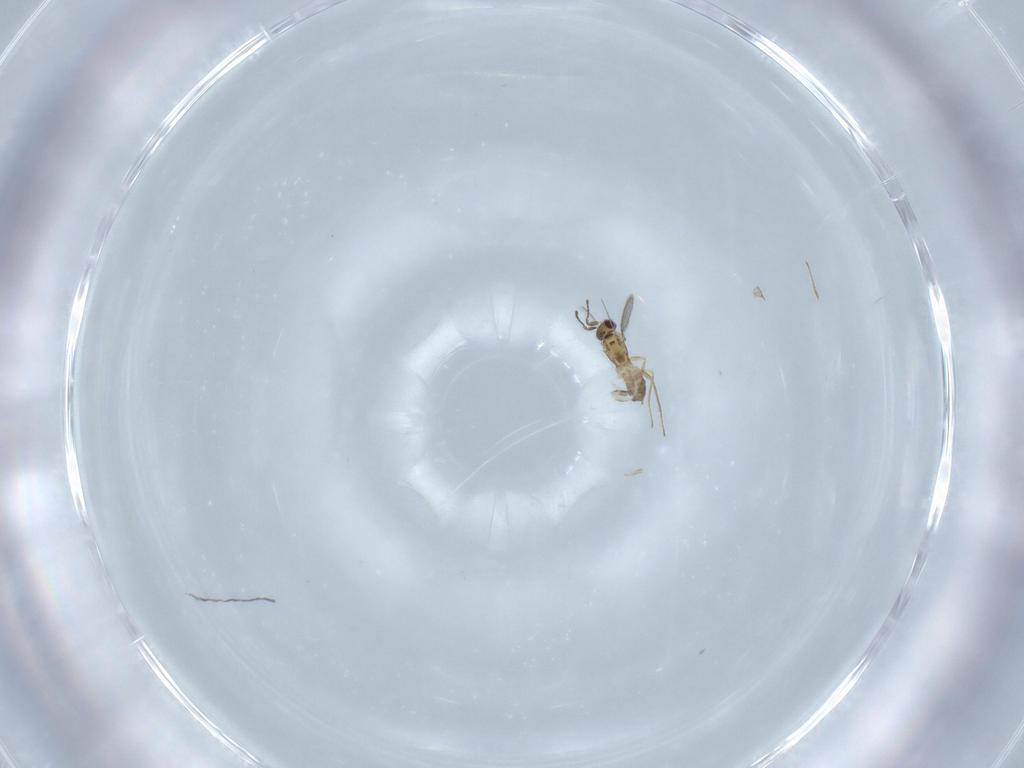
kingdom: Animalia
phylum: Arthropoda
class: Insecta
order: Hymenoptera
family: Mymaridae
